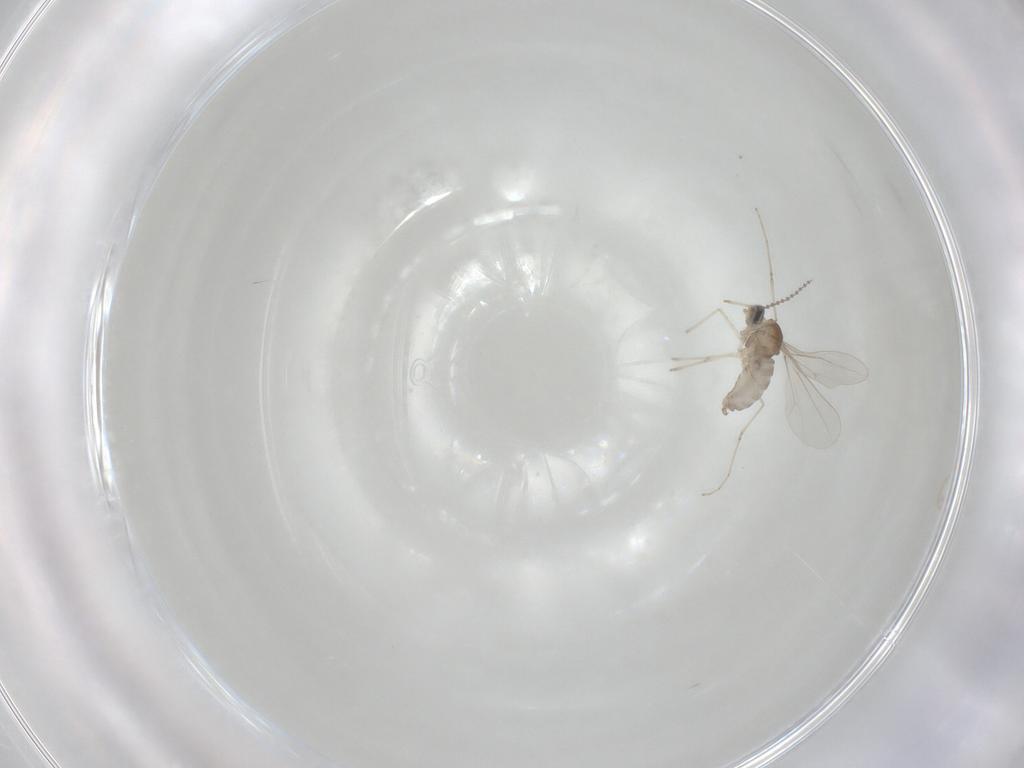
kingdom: Animalia
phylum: Arthropoda
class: Insecta
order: Diptera
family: Cecidomyiidae
